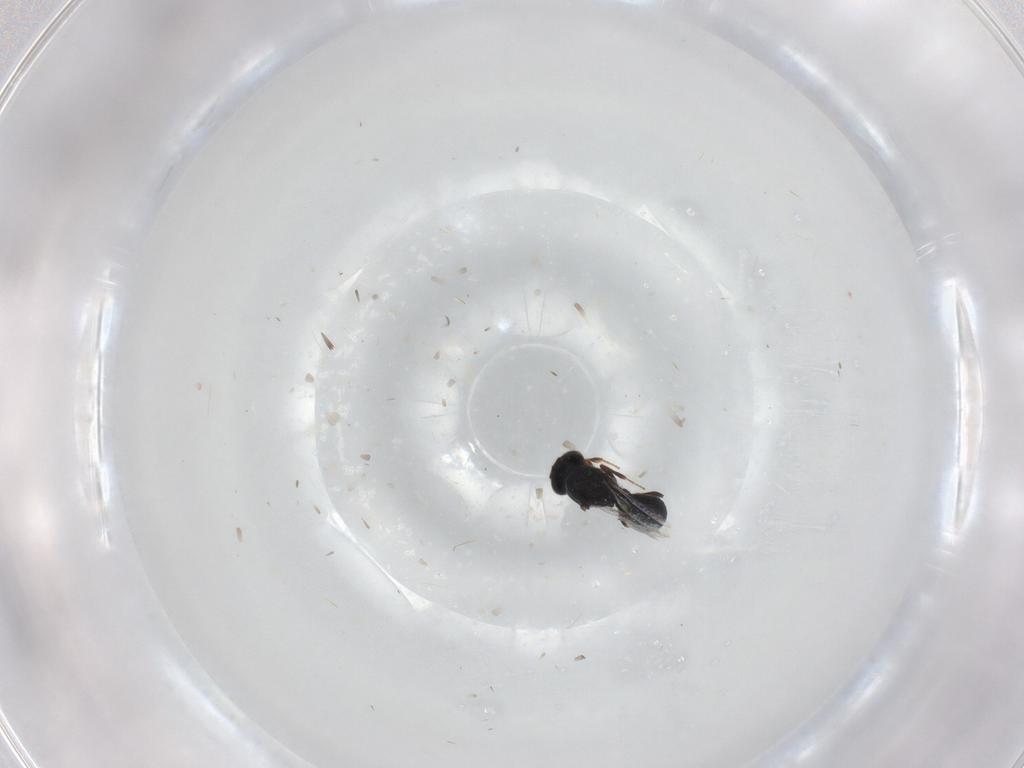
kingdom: Animalia
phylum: Arthropoda
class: Insecta
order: Hymenoptera
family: Platygastridae
